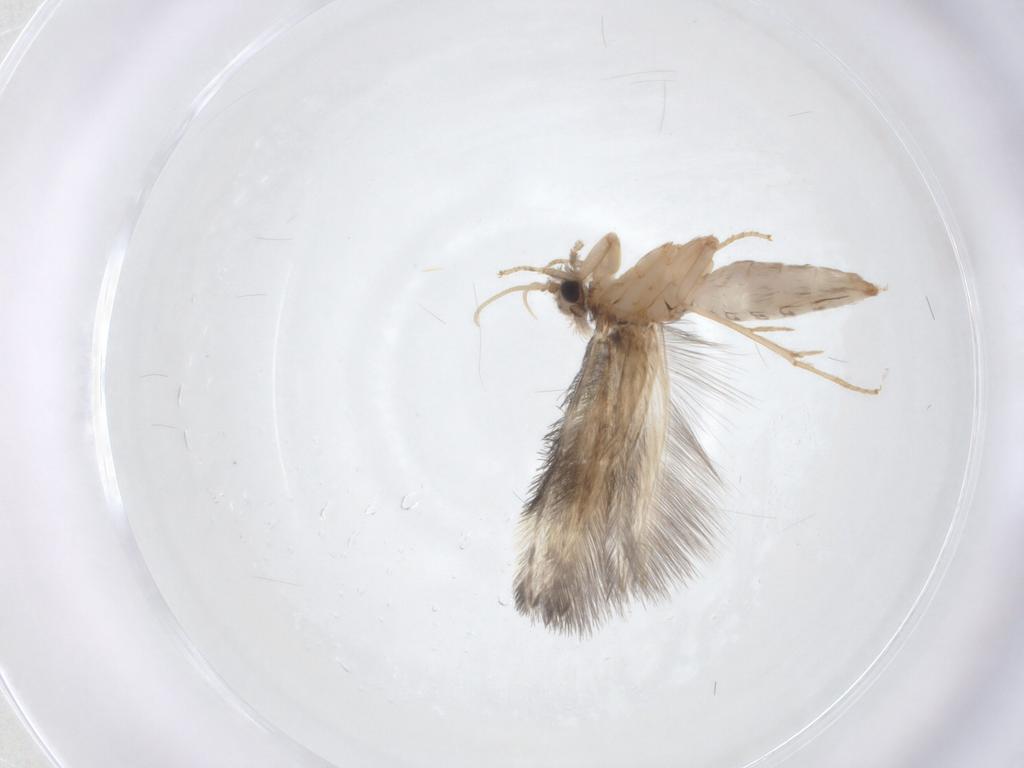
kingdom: Animalia
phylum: Arthropoda
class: Insecta
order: Trichoptera
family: Hydroptilidae
